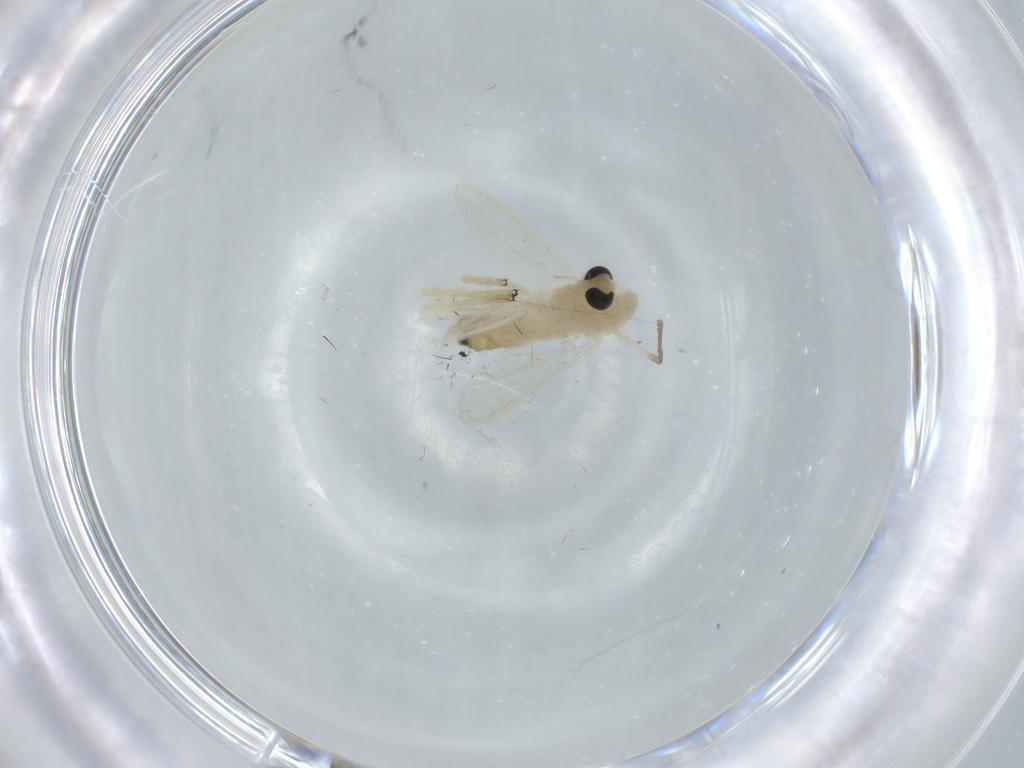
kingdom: Animalia
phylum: Arthropoda
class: Insecta
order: Diptera
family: Chironomidae
